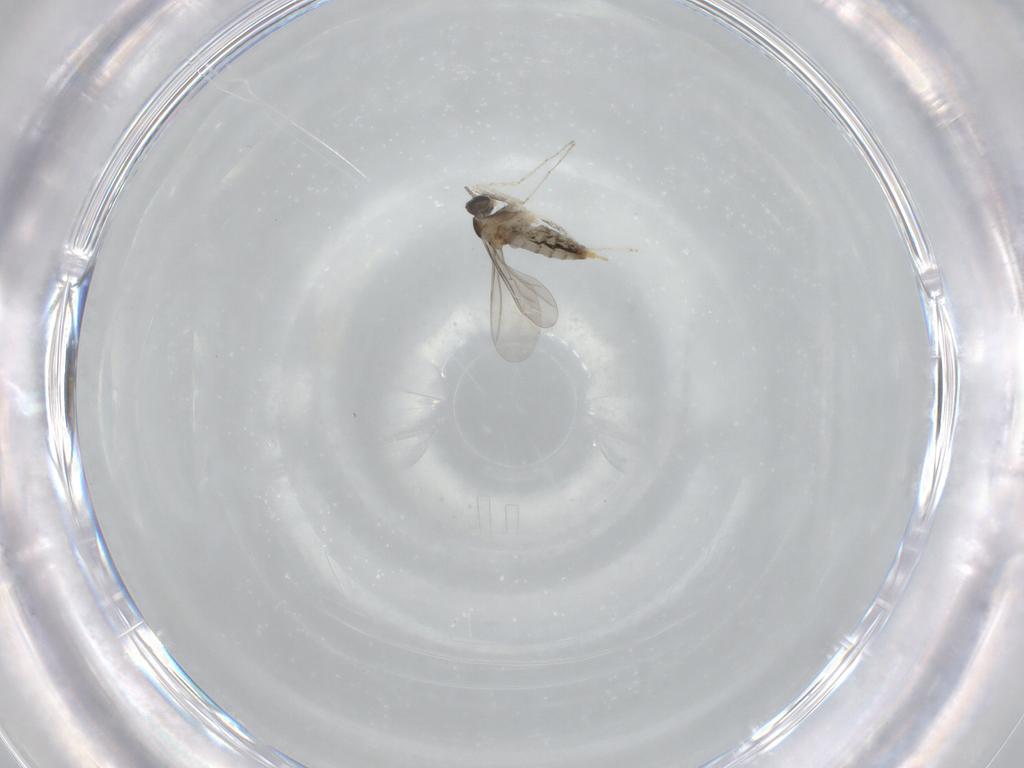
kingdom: Animalia
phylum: Arthropoda
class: Insecta
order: Diptera
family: Cecidomyiidae
